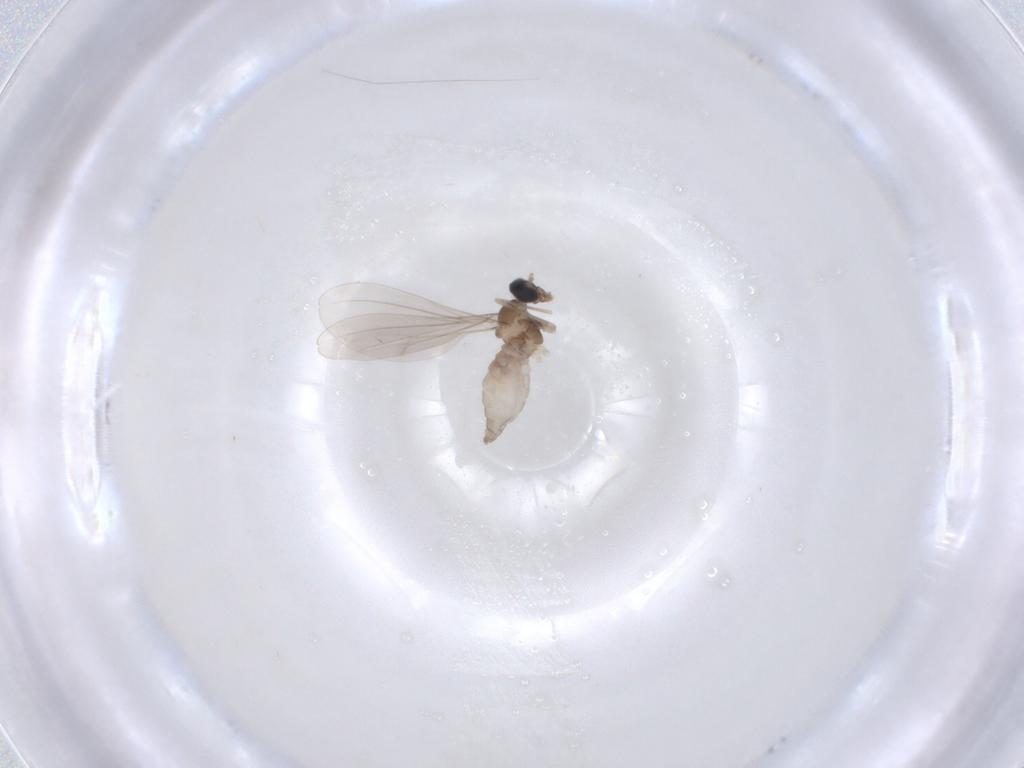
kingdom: Animalia
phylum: Arthropoda
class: Insecta
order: Diptera
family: Cecidomyiidae
